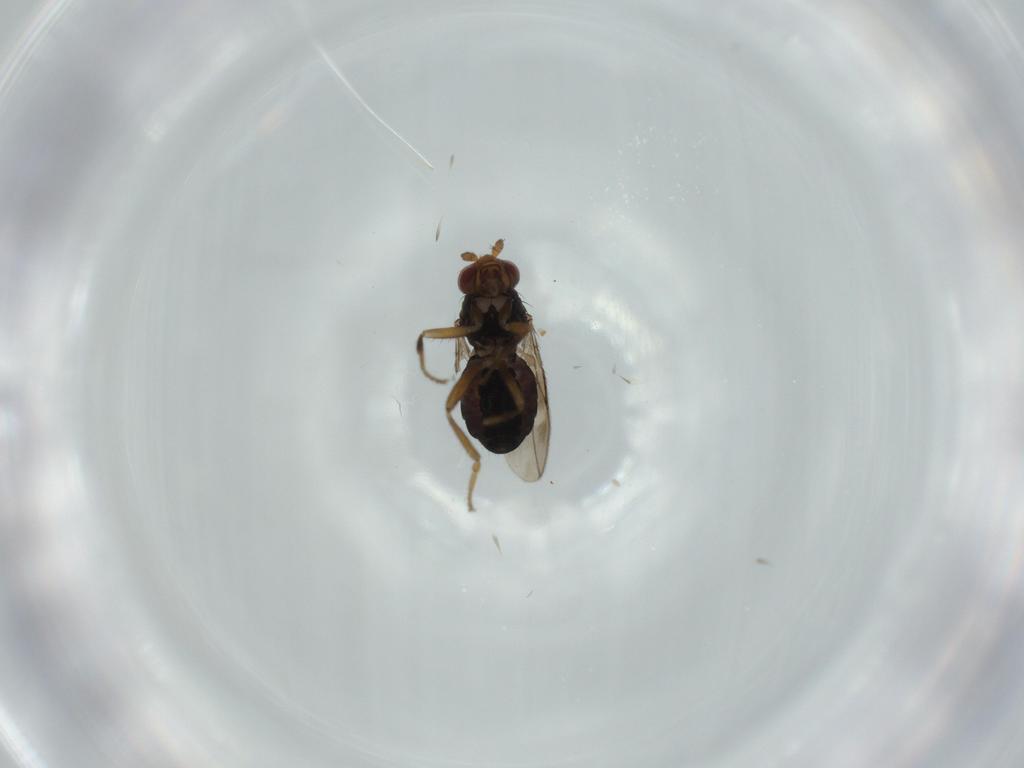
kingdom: Animalia
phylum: Arthropoda
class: Insecta
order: Diptera
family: Sphaeroceridae
